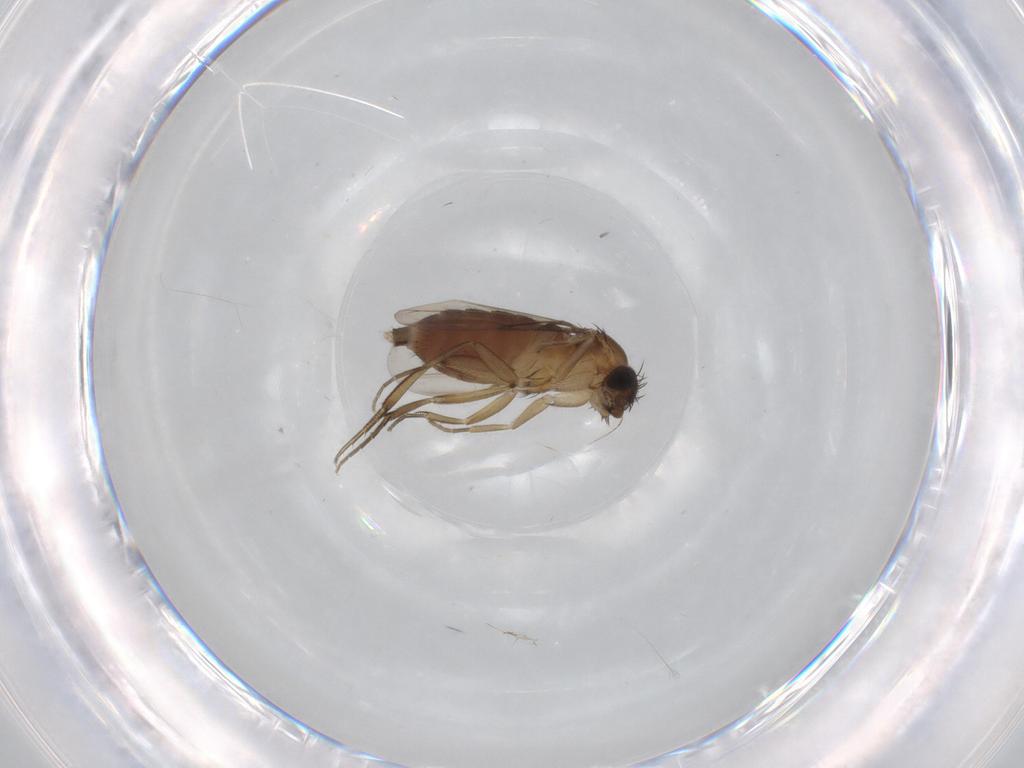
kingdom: Animalia
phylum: Arthropoda
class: Insecta
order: Diptera
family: Phoridae
